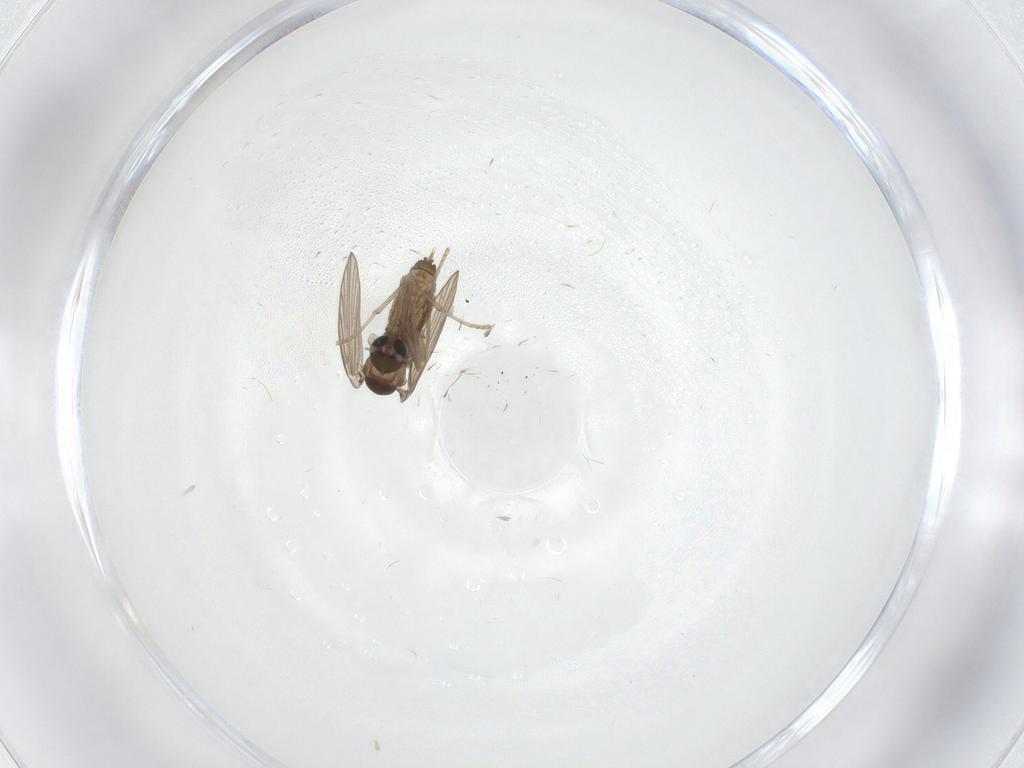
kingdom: Animalia
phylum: Arthropoda
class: Insecta
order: Diptera
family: Psychodidae
